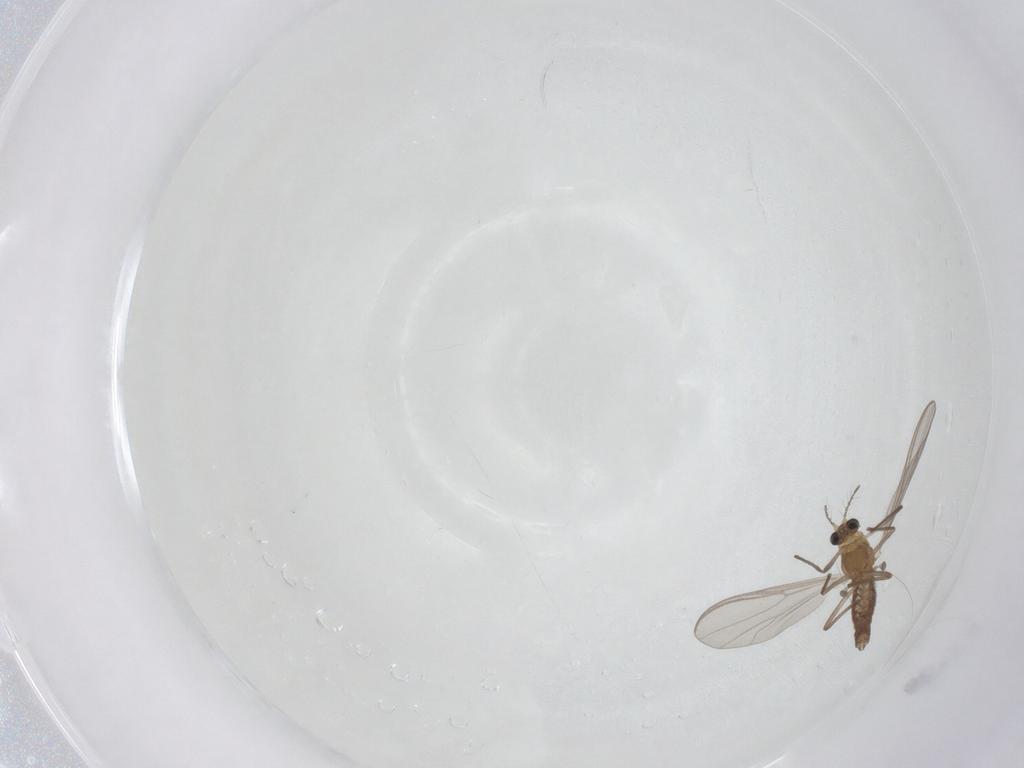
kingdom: Animalia
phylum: Arthropoda
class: Insecta
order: Diptera
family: Chironomidae
